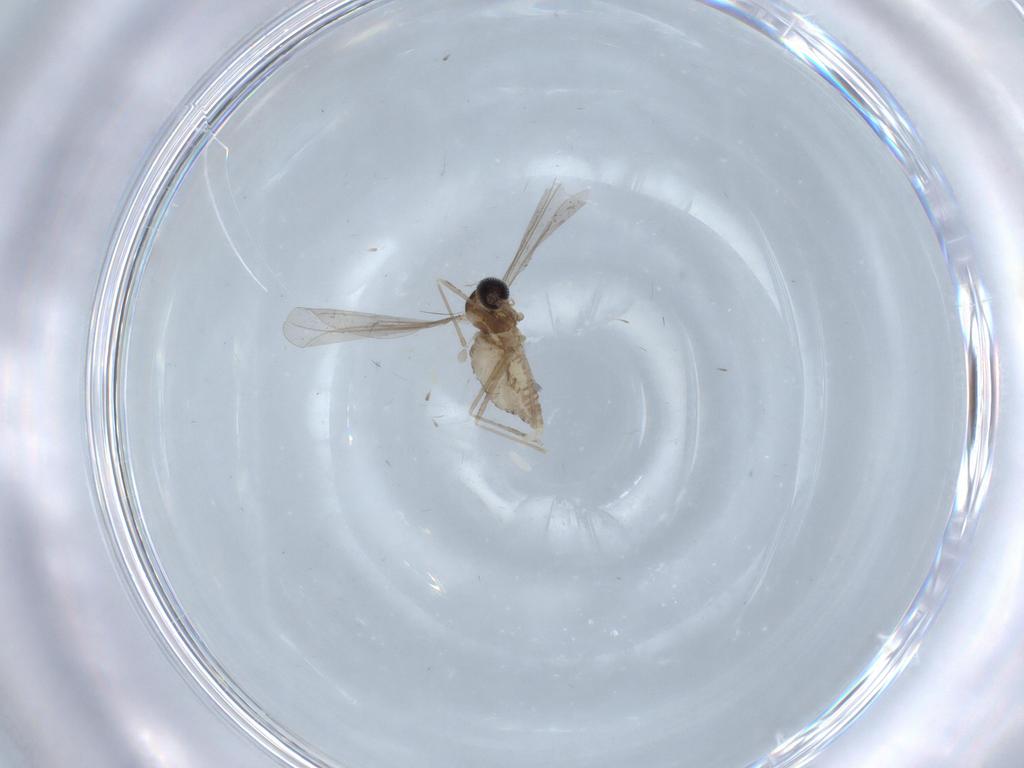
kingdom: Animalia
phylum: Arthropoda
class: Insecta
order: Diptera
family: Cecidomyiidae
